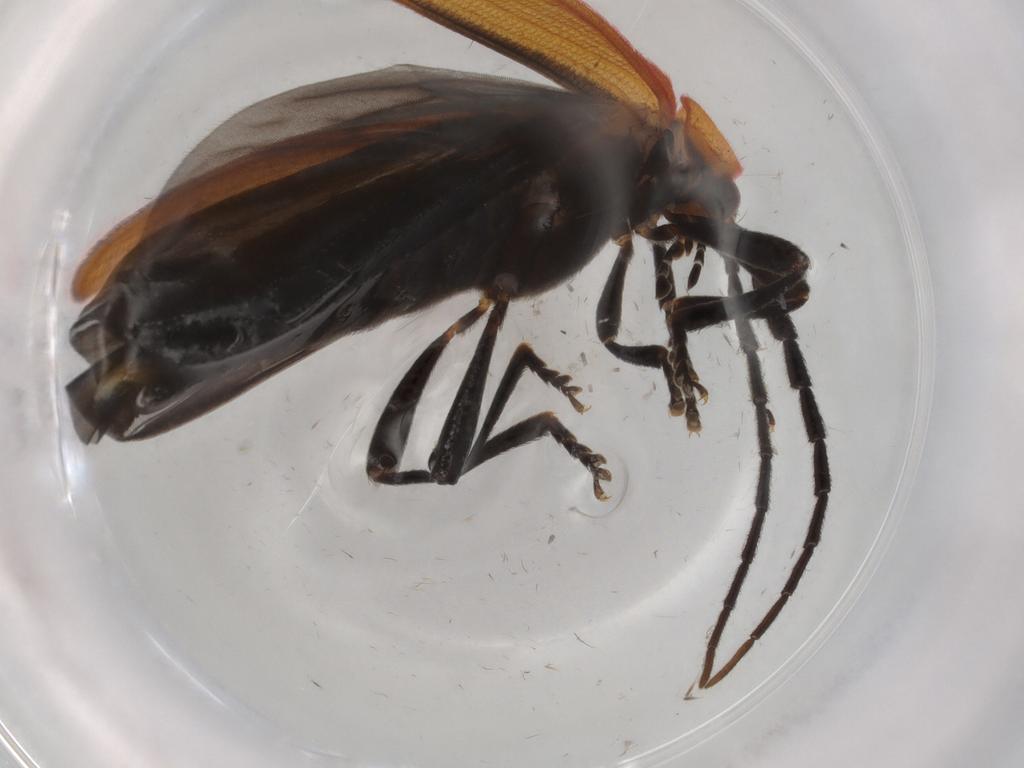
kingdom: Animalia
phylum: Arthropoda
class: Insecta
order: Coleoptera
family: Lycidae
